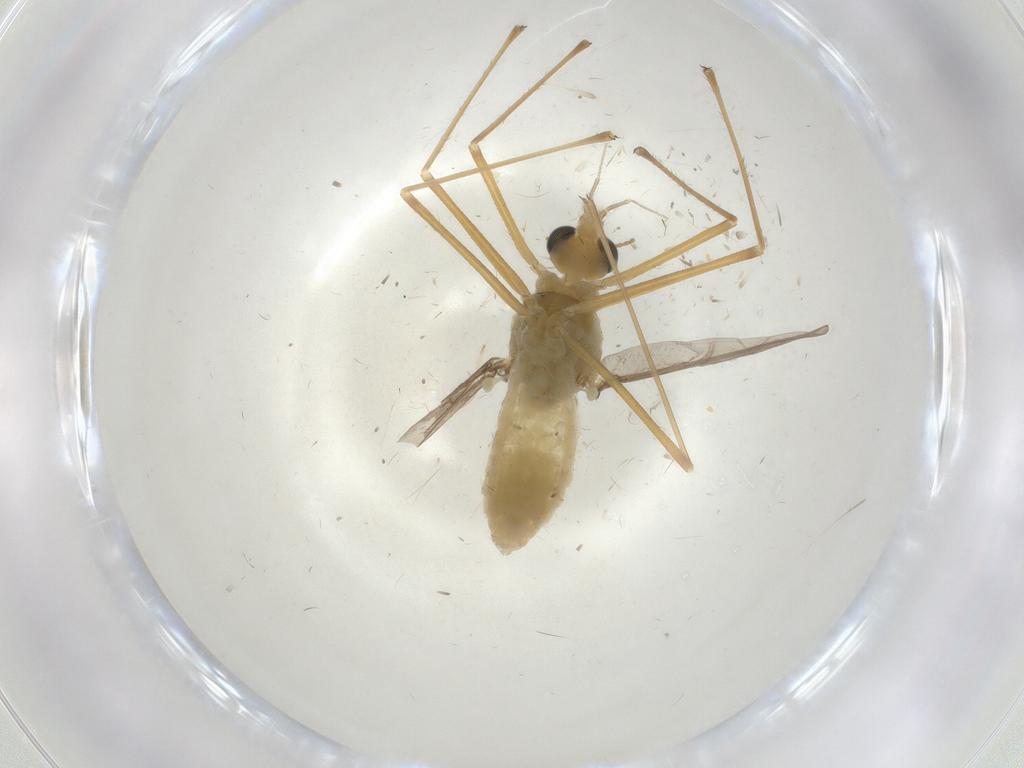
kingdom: Animalia
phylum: Arthropoda
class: Insecta
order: Diptera
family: Chironomidae
